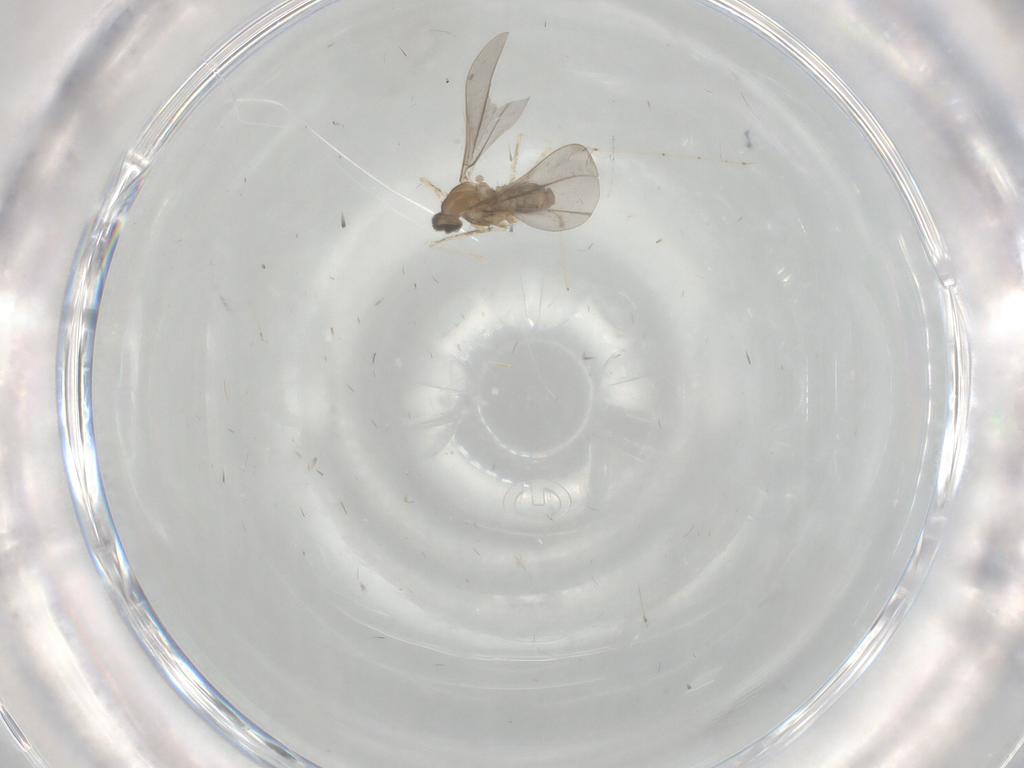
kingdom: Animalia
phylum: Arthropoda
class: Insecta
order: Diptera
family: Cecidomyiidae
